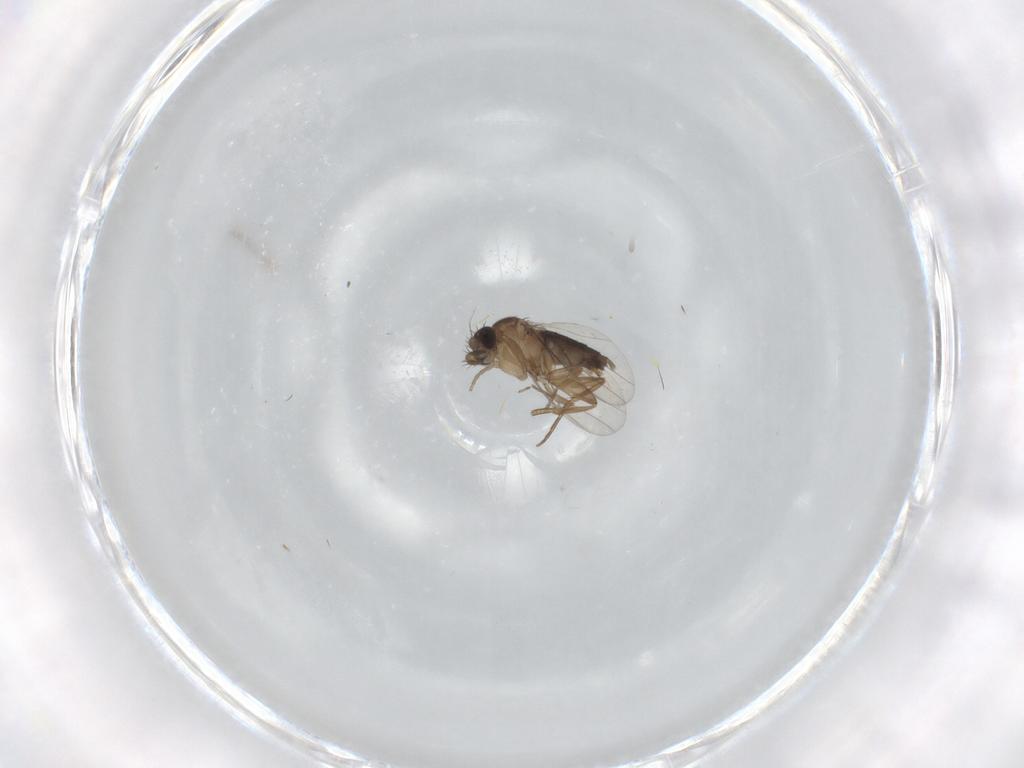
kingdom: Animalia
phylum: Arthropoda
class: Insecta
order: Diptera
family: Phoridae
